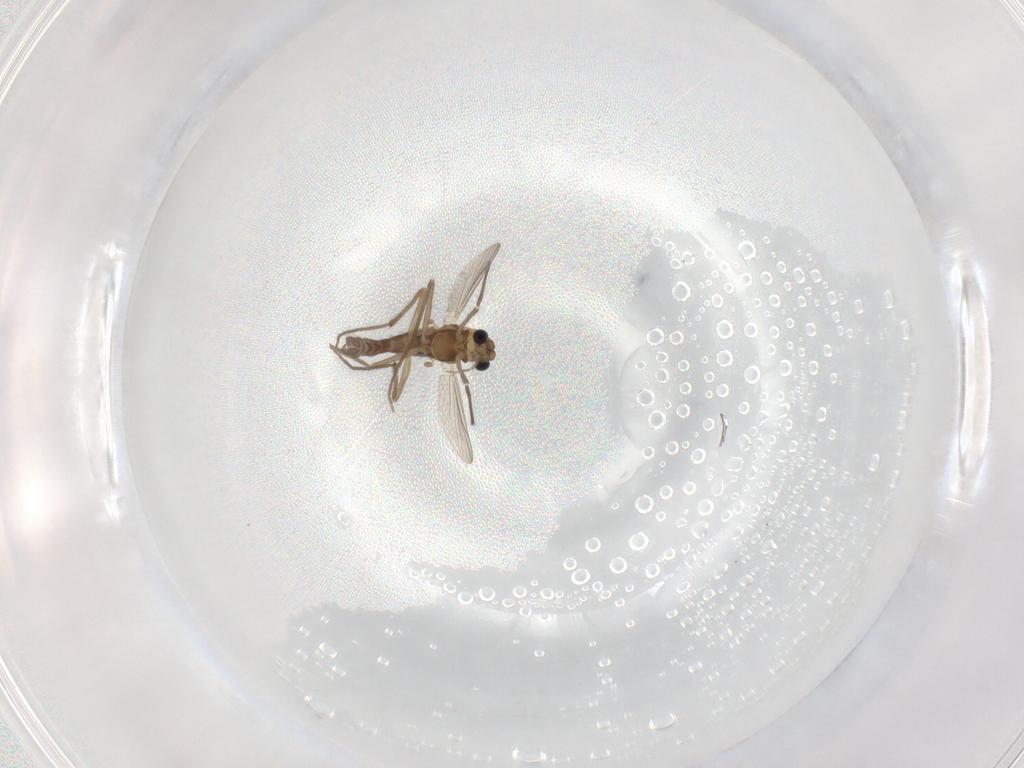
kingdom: Animalia
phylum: Arthropoda
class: Insecta
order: Diptera
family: Chironomidae
